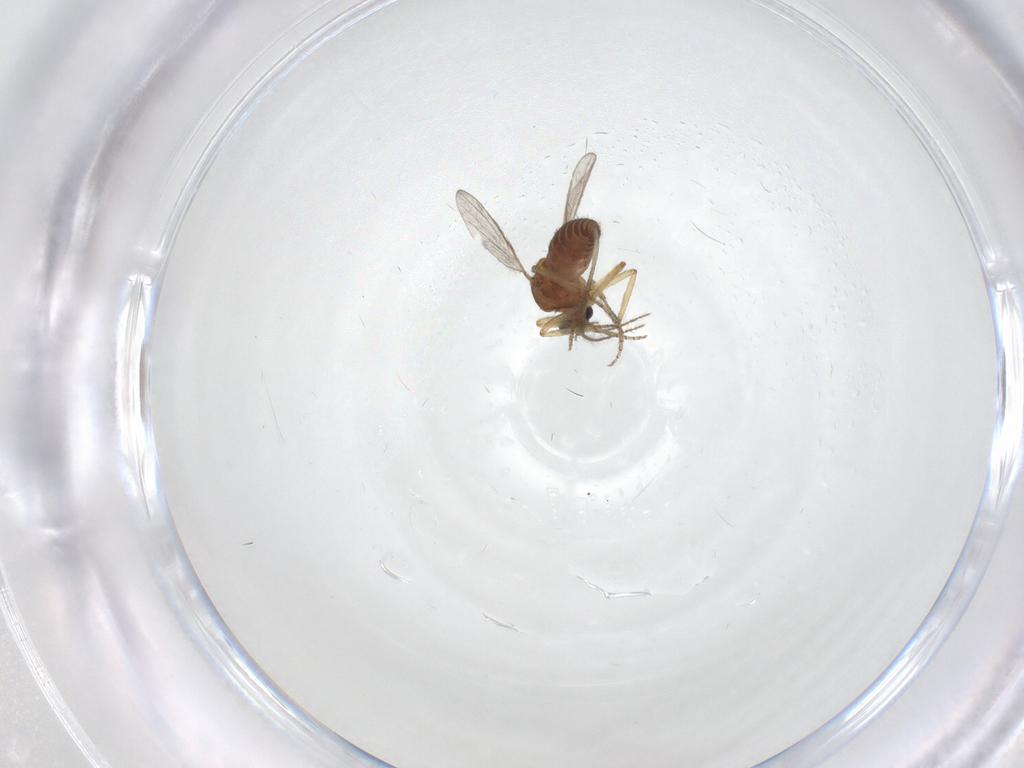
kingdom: Animalia
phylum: Arthropoda
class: Insecta
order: Diptera
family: Ceratopogonidae
